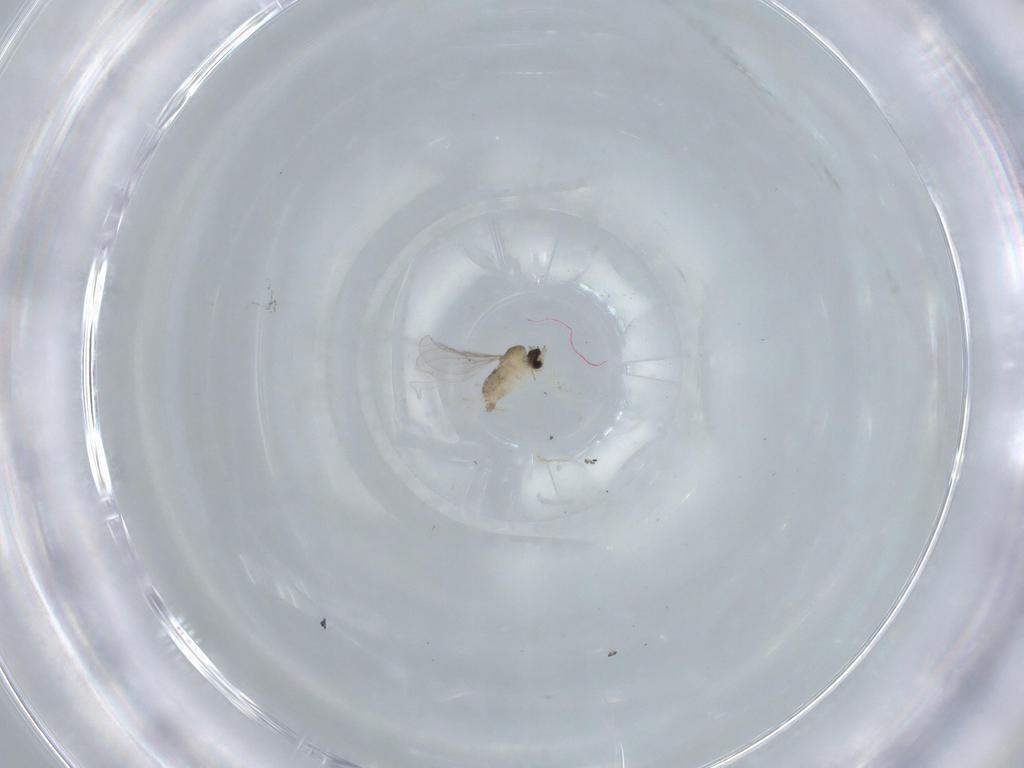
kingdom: Animalia
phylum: Arthropoda
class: Insecta
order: Diptera
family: Cecidomyiidae
